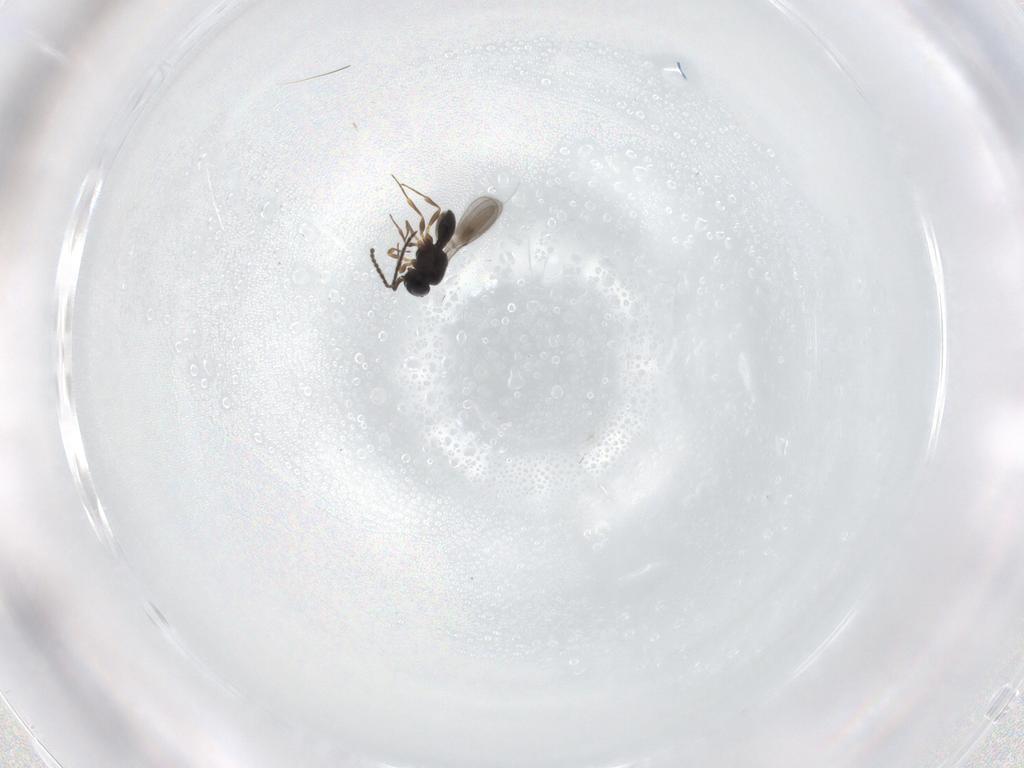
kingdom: Animalia
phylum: Arthropoda
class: Insecta
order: Hymenoptera
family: Scelionidae
